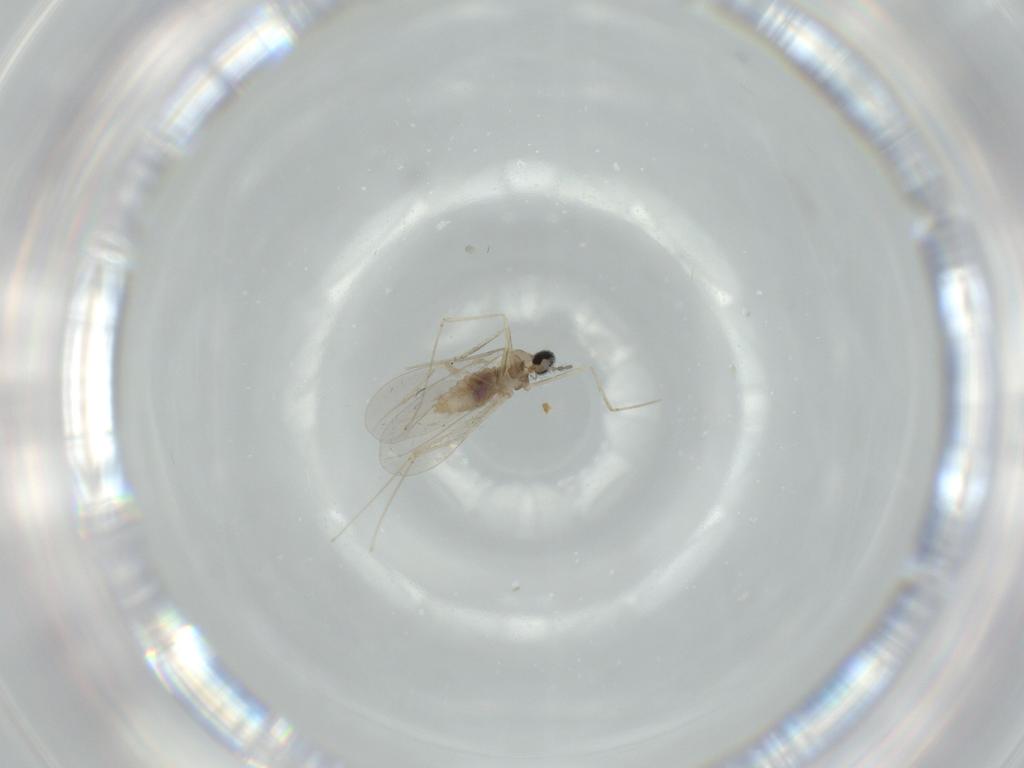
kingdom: Animalia
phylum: Arthropoda
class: Insecta
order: Diptera
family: Cecidomyiidae
